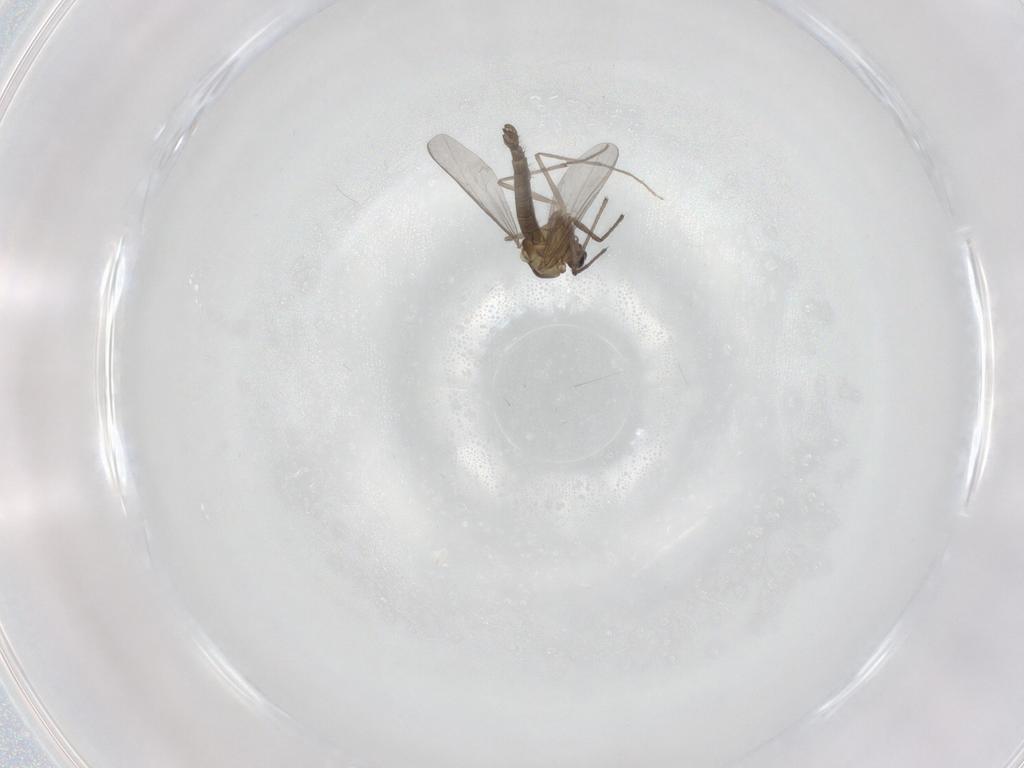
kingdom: Animalia
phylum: Arthropoda
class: Insecta
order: Diptera
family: Chironomidae
